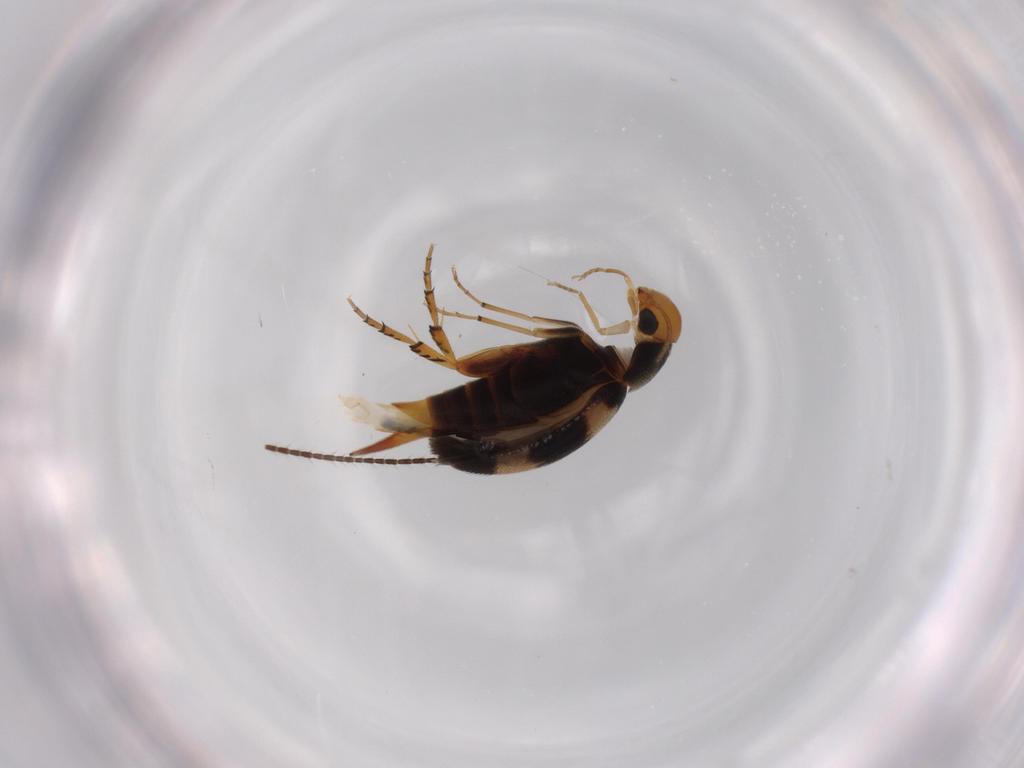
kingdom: Animalia
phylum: Arthropoda
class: Insecta
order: Coleoptera
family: Mordellidae
